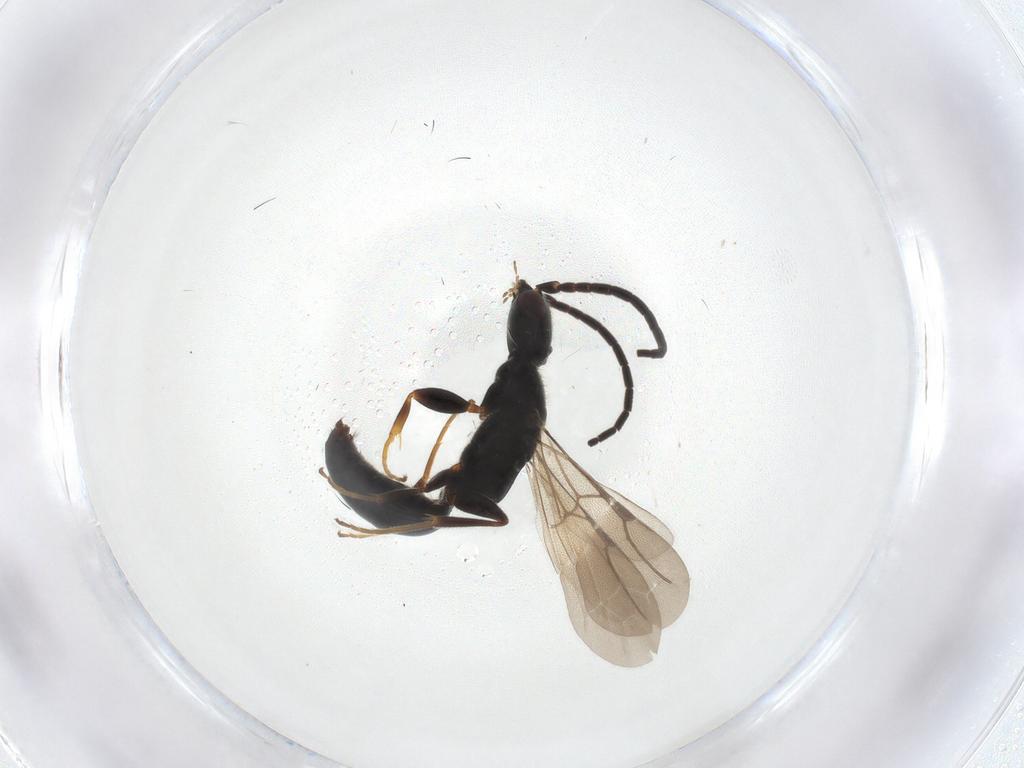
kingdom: Animalia
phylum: Arthropoda
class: Insecta
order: Hymenoptera
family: Bethylidae
